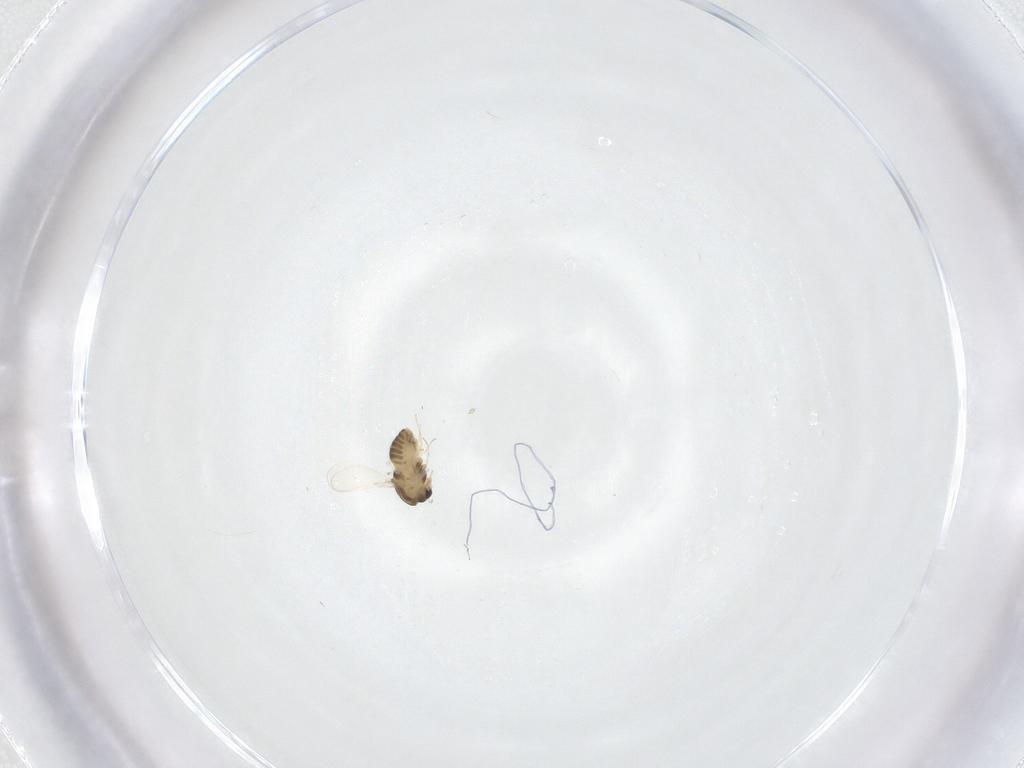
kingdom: Animalia
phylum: Arthropoda
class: Insecta
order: Diptera
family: Chironomidae
